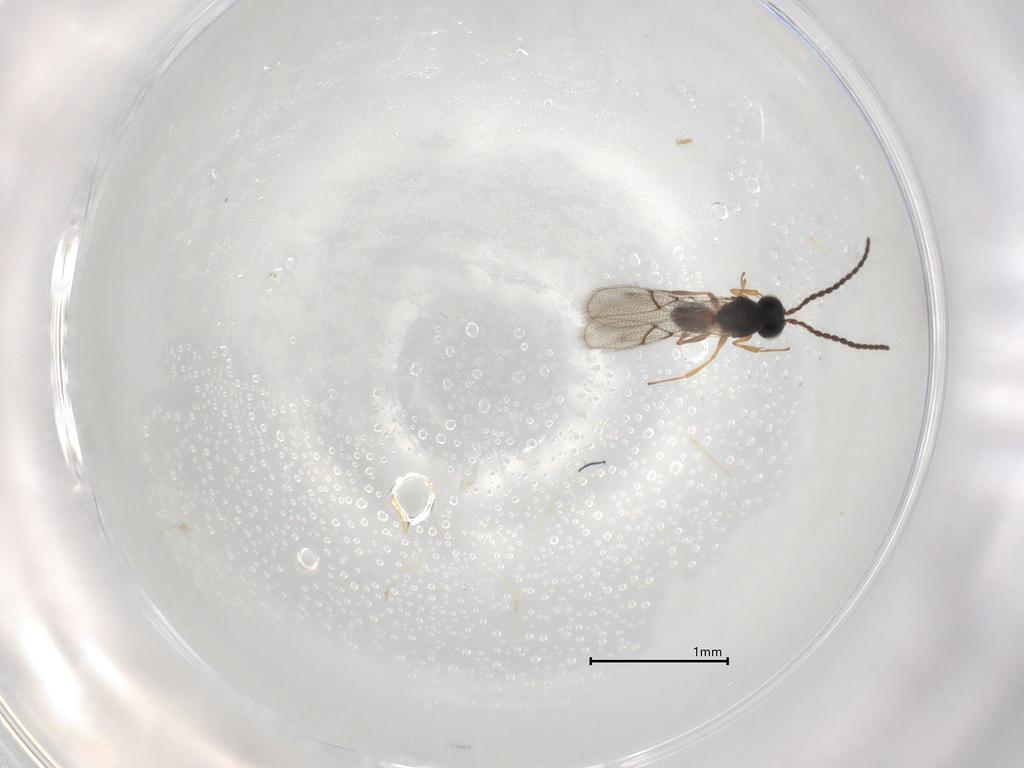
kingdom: Animalia
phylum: Arthropoda
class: Insecta
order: Hymenoptera
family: Figitidae
